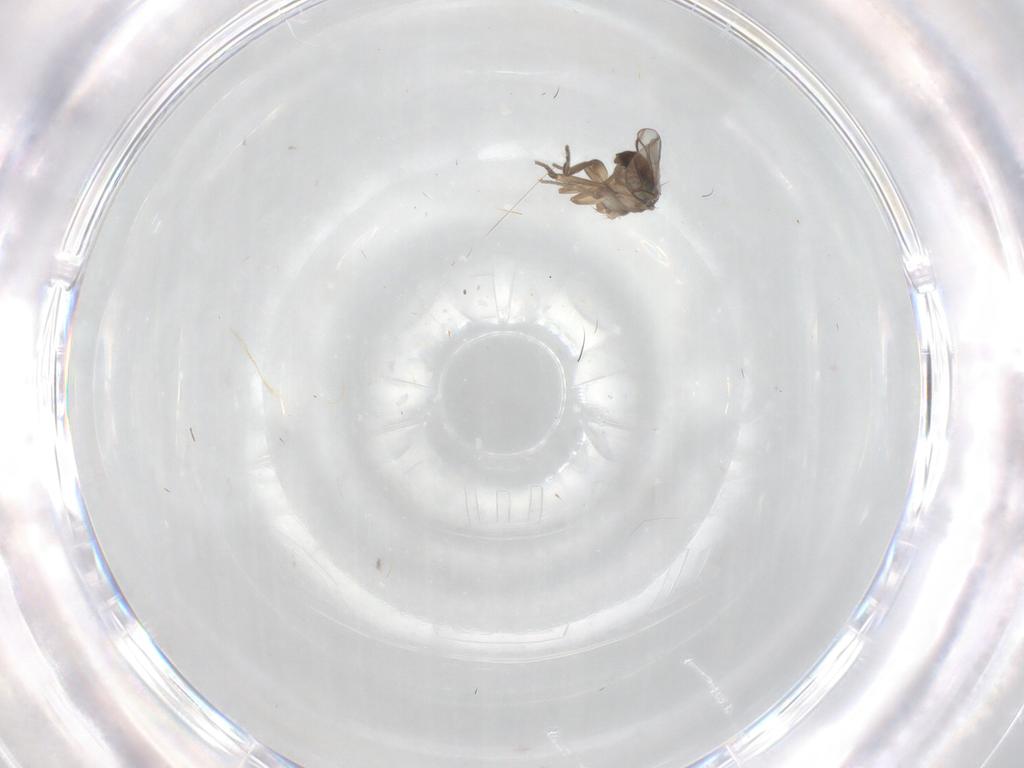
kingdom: Animalia
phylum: Arthropoda
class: Insecta
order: Diptera
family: Phoridae
